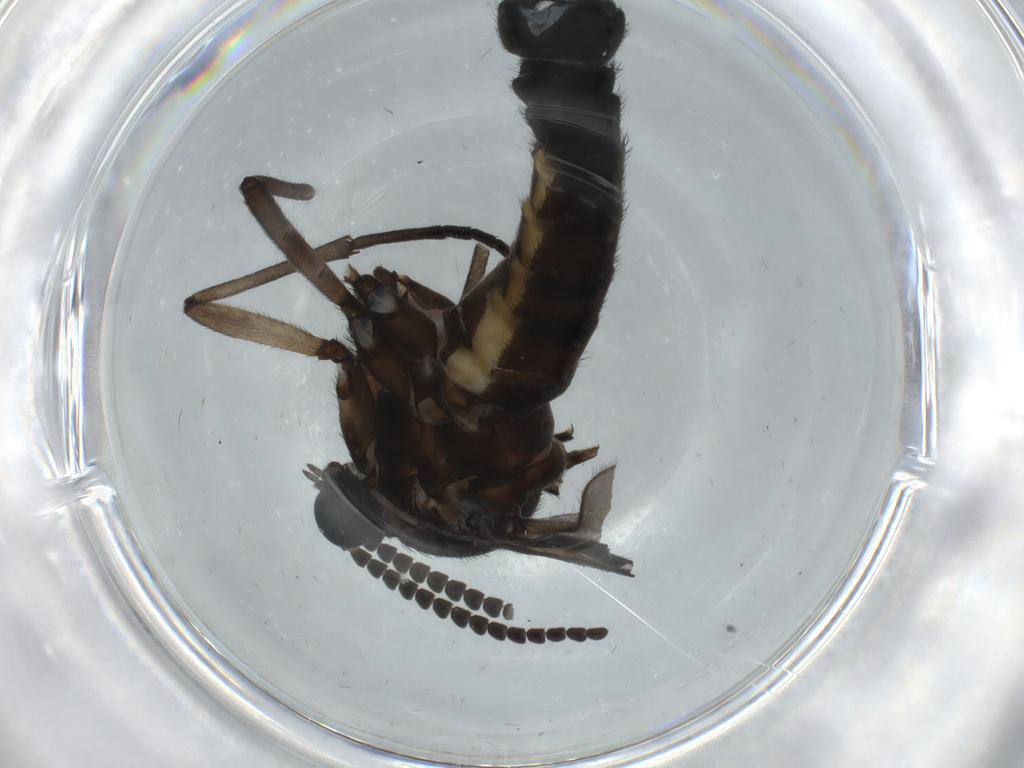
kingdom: Animalia
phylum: Arthropoda
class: Insecta
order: Diptera
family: Sciaridae
